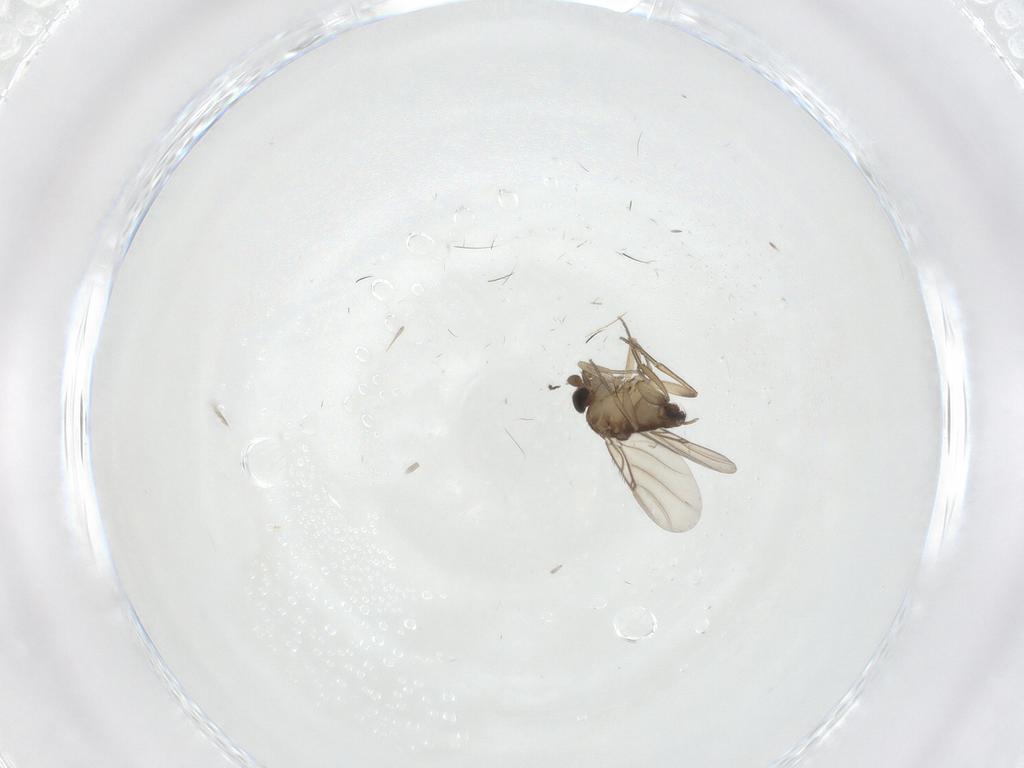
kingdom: Animalia
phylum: Arthropoda
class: Insecta
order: Diptera
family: Phoridae
